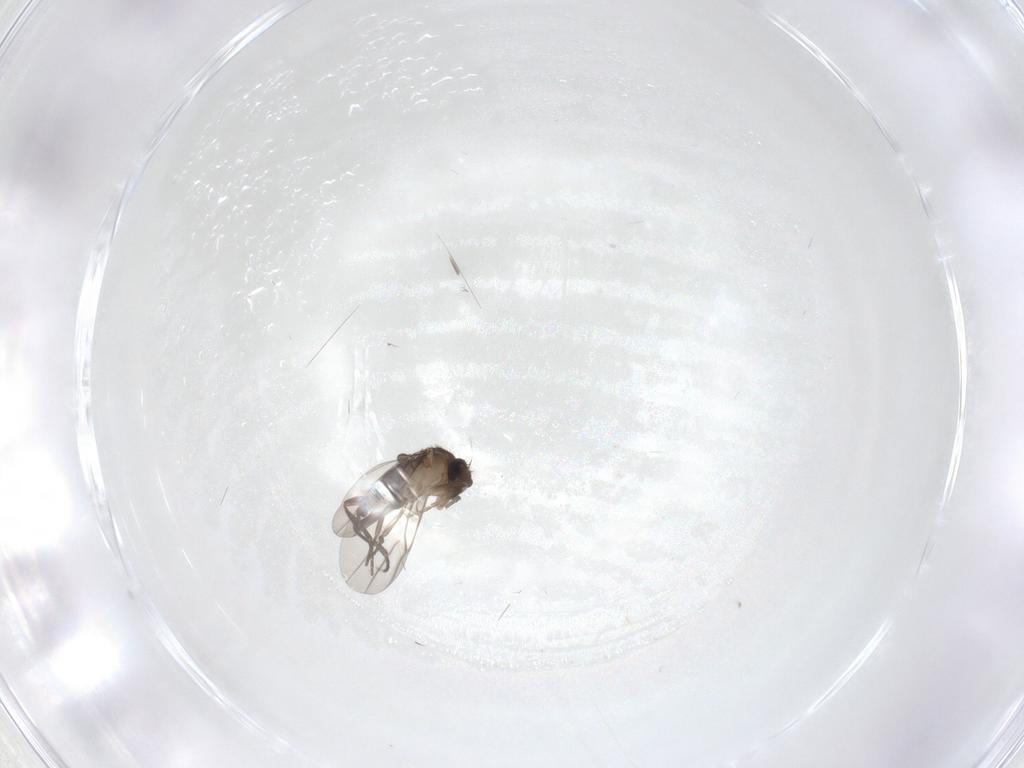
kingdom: Animalia
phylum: Arthropoda
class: Insecta
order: Diptera
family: Phoridae
